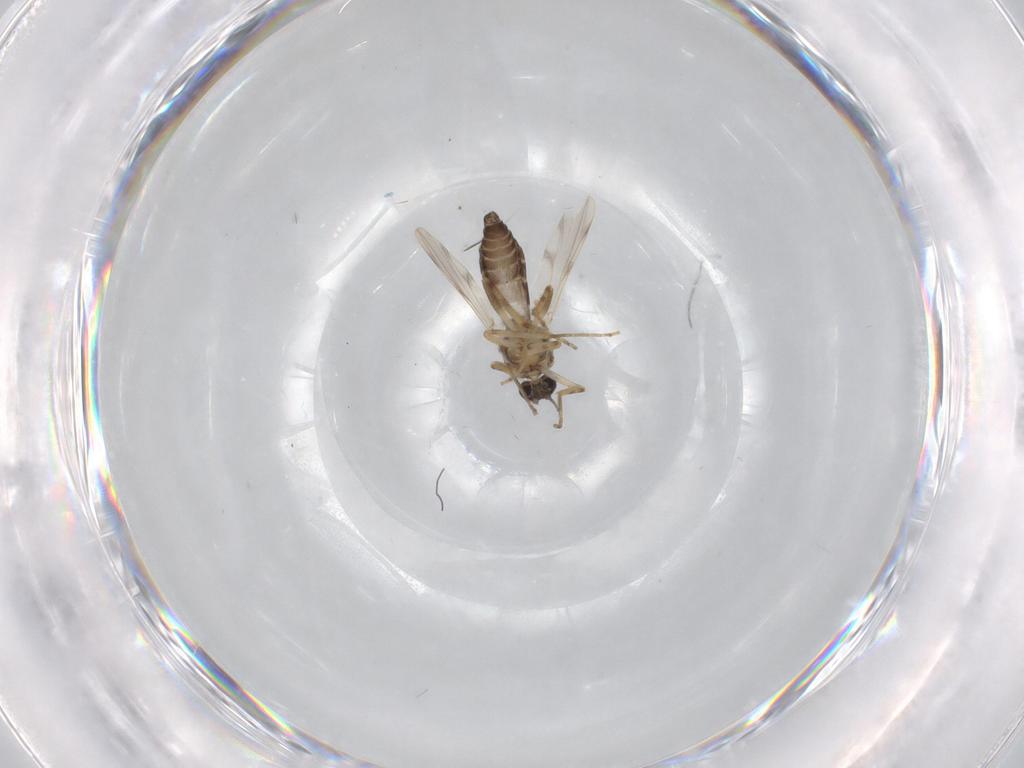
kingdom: Animalia
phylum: Arthropoda
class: Insecta
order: Diptera
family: Ceratopogonidae
